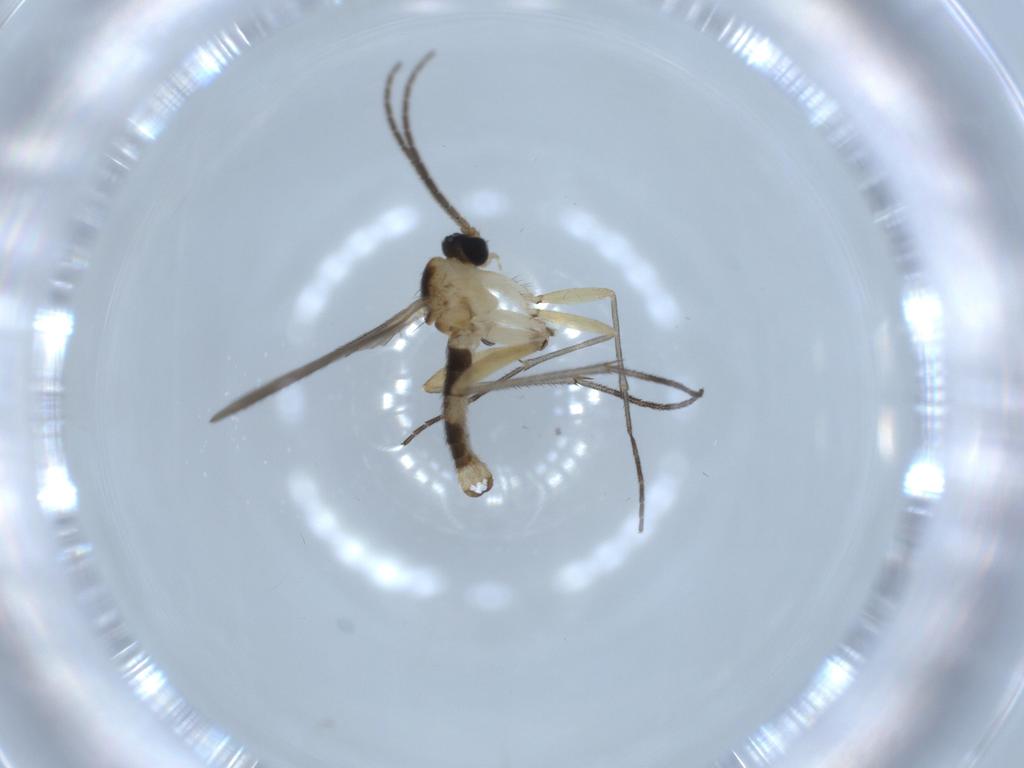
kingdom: Animalia
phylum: Arthropoda
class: Insecta
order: Diptera
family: Sciaridae
